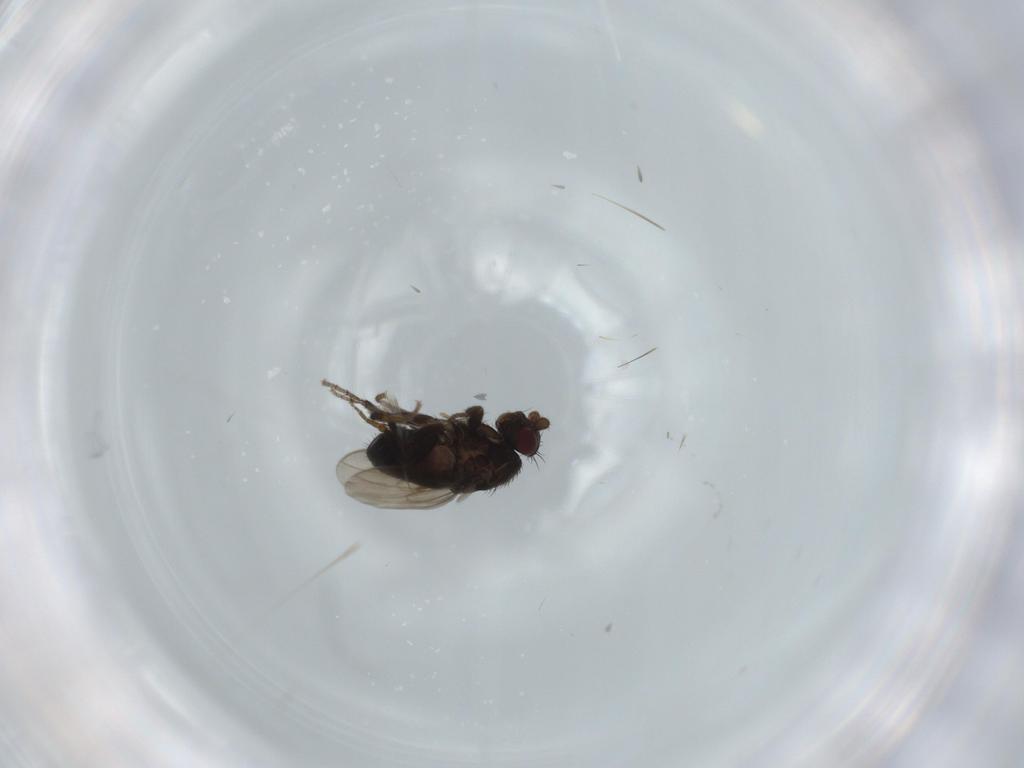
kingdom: Animalia
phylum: Arthropoda
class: Insecta
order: Diptera
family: Sphaeroceridae
